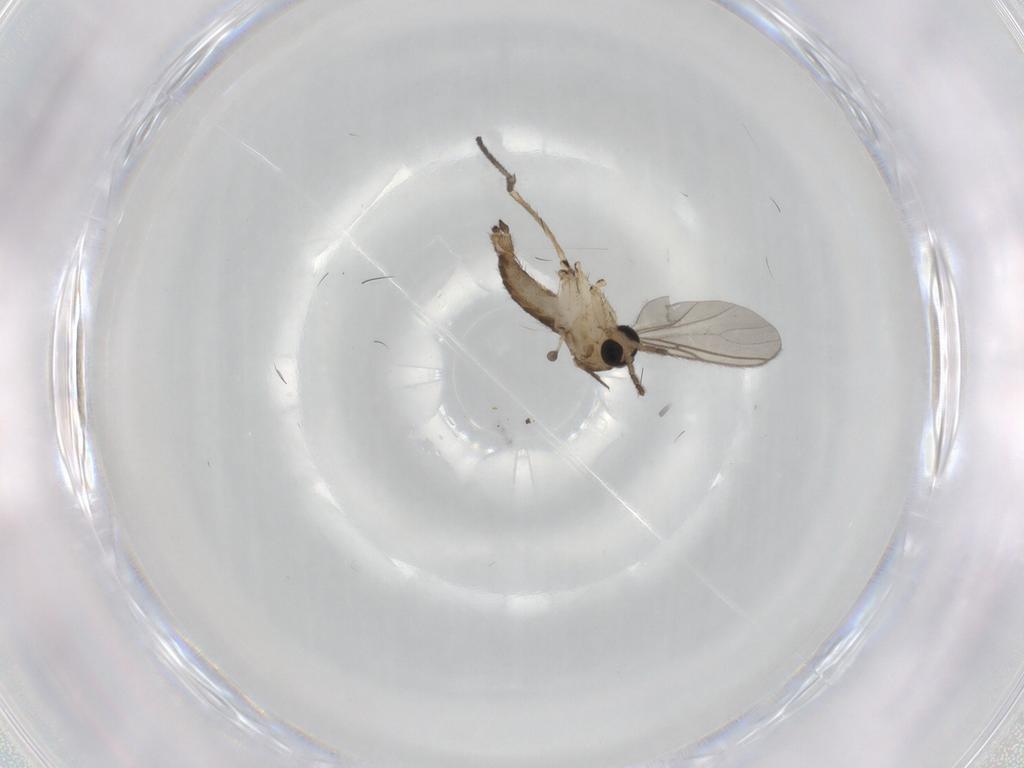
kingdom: Animalia
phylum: Arthropoda
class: Insecta
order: Diptera
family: Sciaridae
